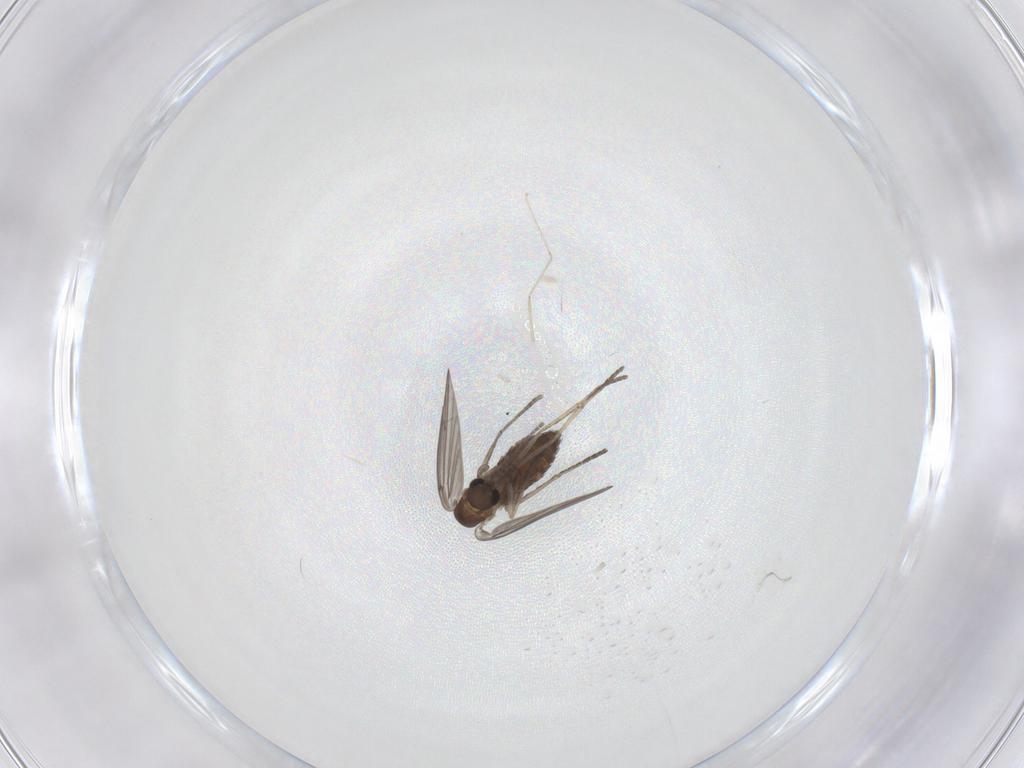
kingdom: Animalia
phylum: Arthropoda
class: Insecta
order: Diptera
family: Psychodidae
